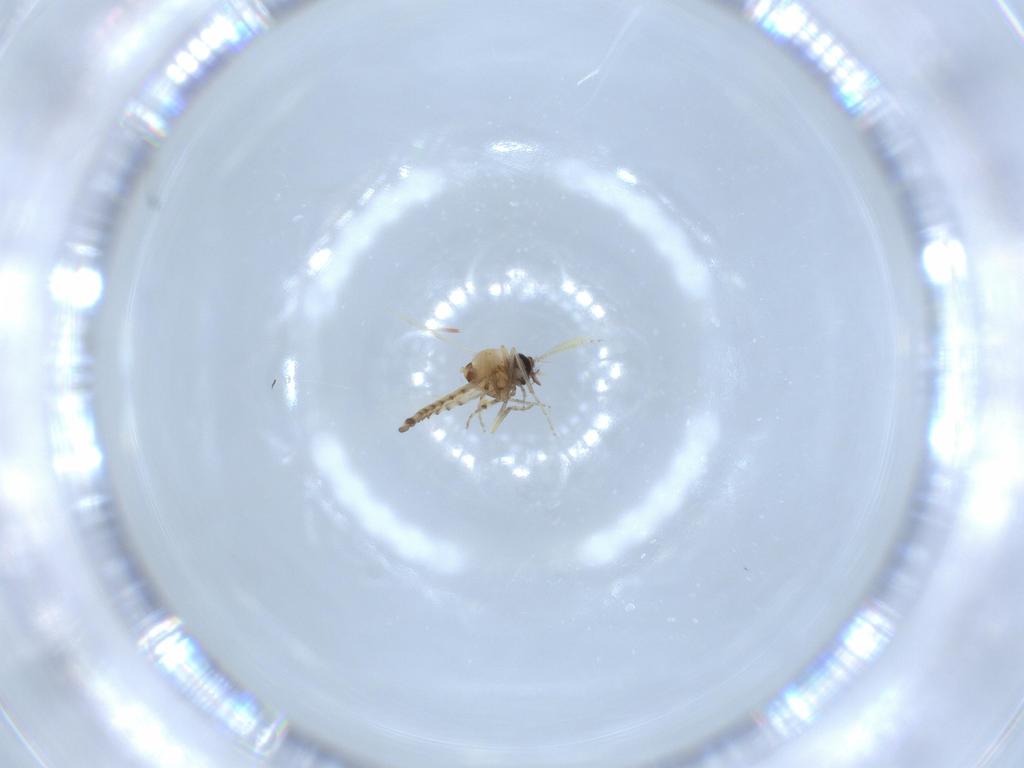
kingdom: Animalia
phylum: Arthropoda
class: Insecta
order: Diptera
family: Ceratopogonidae
